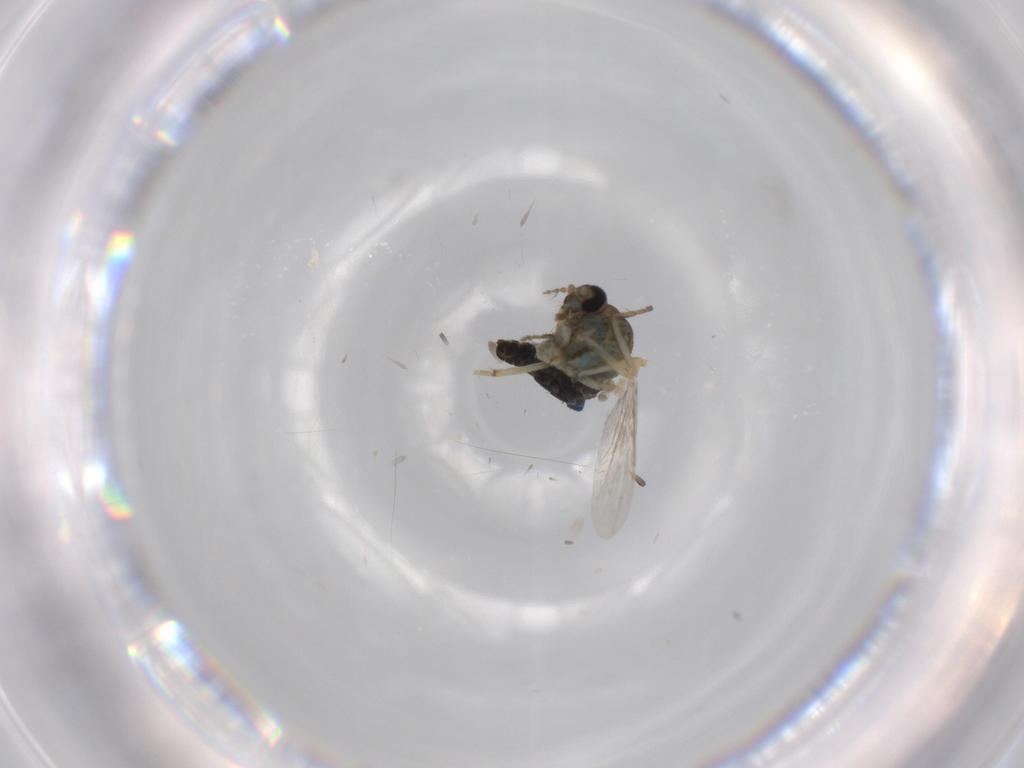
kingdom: Animalia
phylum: Arthropoda
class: Insecta
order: Diptera
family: Ceratopogonidae
